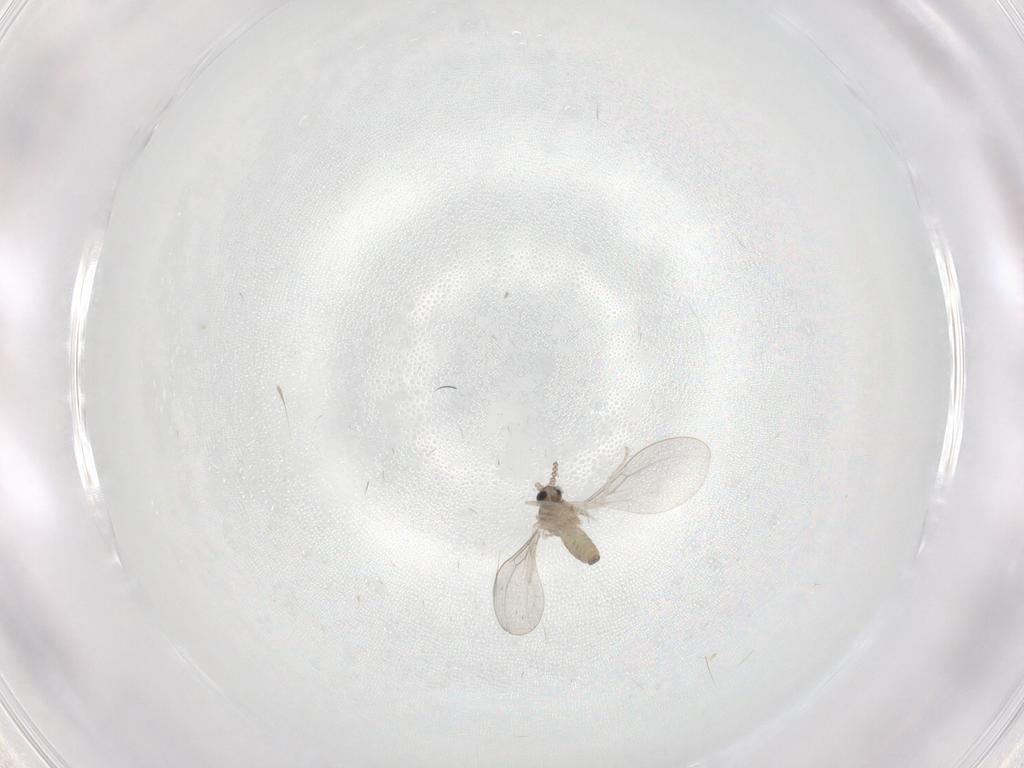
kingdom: Animalia
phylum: Arthropoda
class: Insecta
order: Diptera
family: Cecidomyiidae
